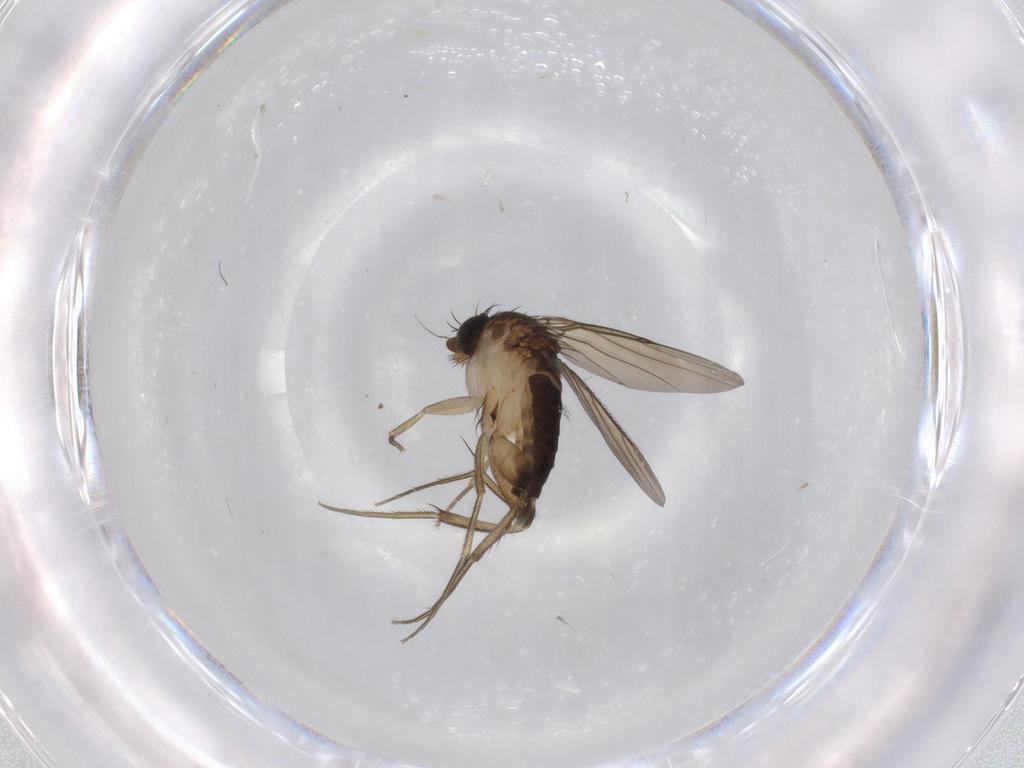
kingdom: Animalia
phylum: Arthropoda
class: Insecta
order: Diptera
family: Phoridae
